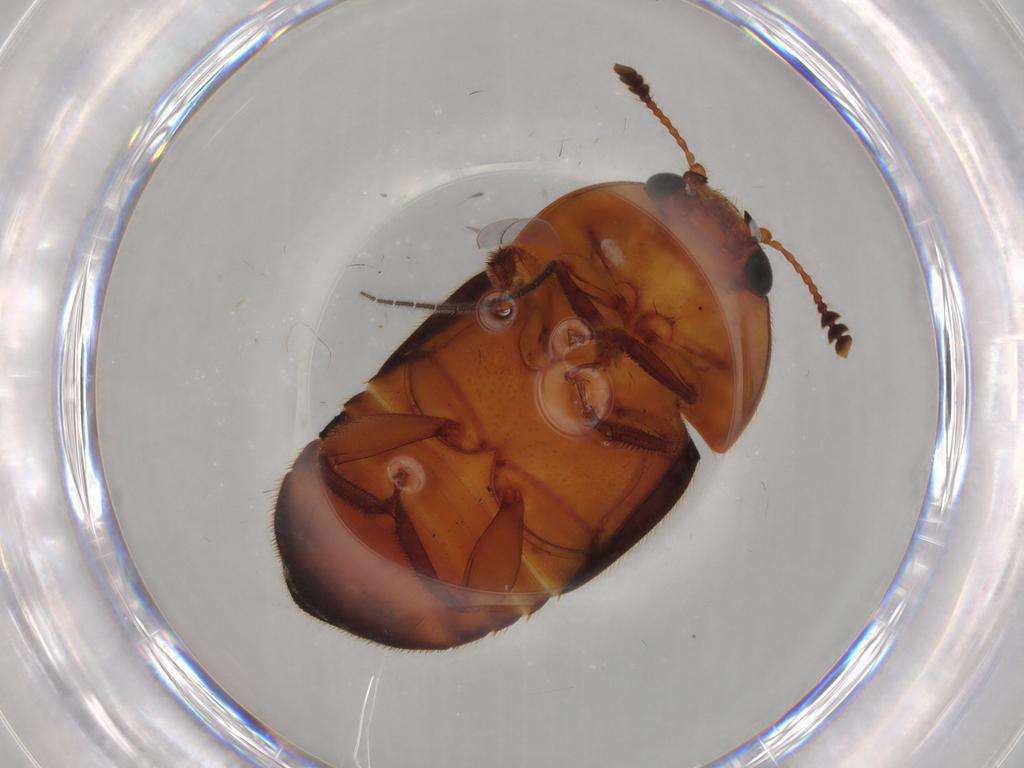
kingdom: Animalia
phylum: Arthropoda
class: Insecta
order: Coleoptera
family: Nitidulidae
